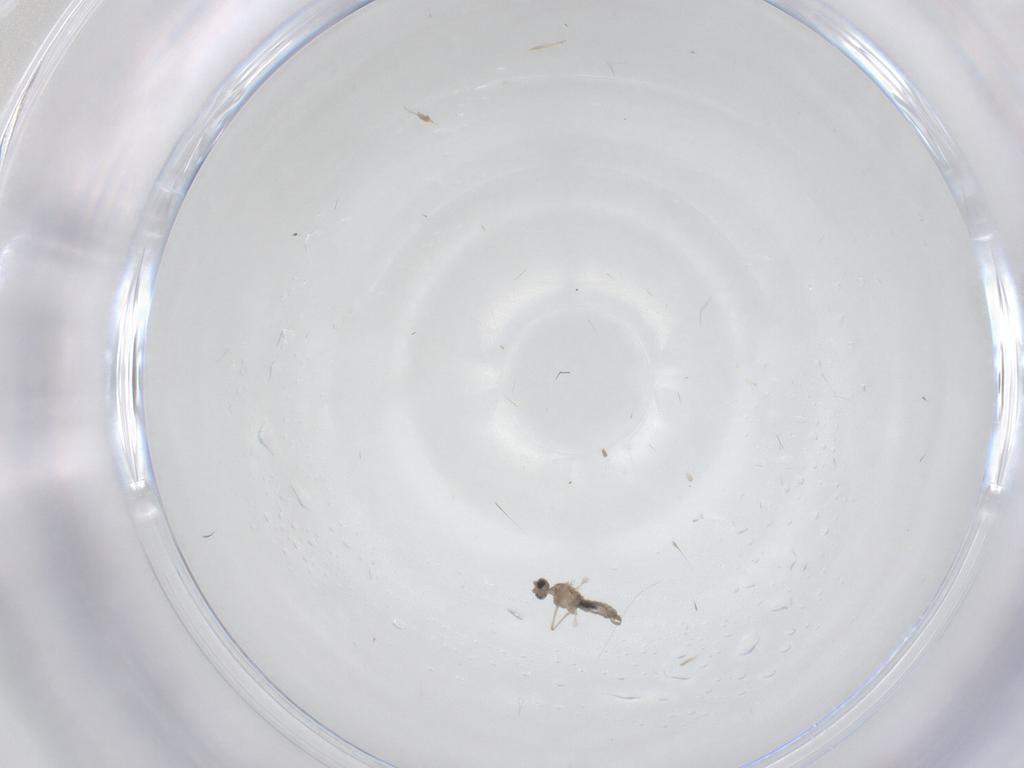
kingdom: Animalia
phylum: Arthropoda
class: Insecta
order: Diptera
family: Cecidomyiidae
